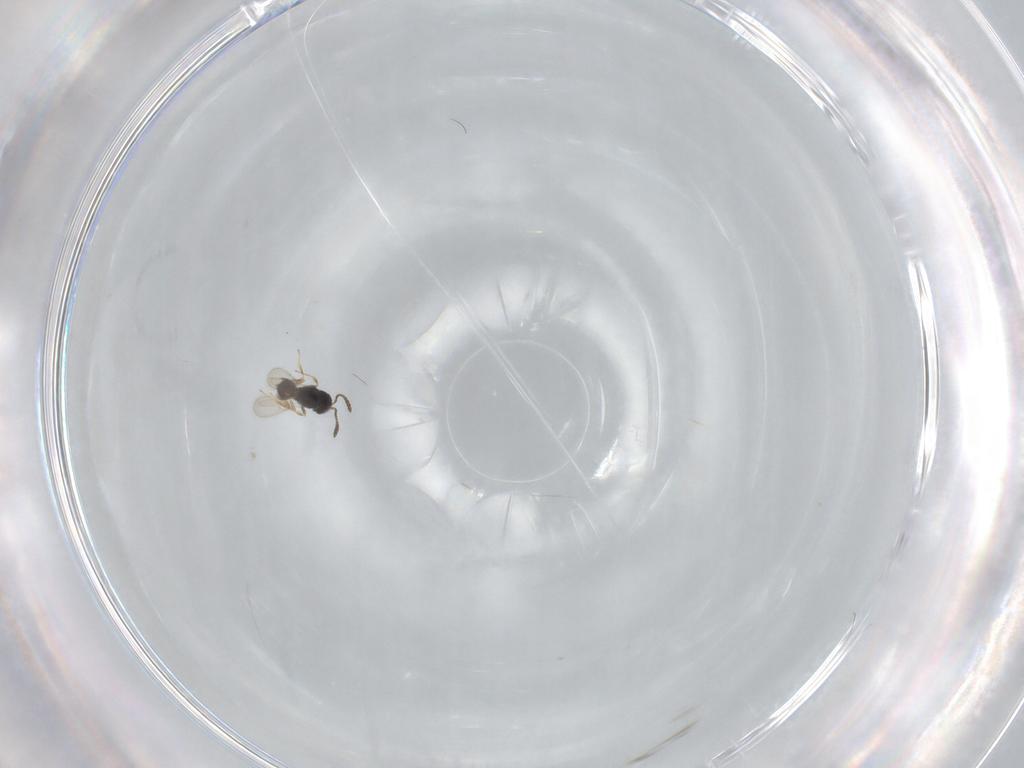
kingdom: Animalia
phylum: Arthropoda
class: Insecta
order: Hymenoptera
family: Scelionidae
